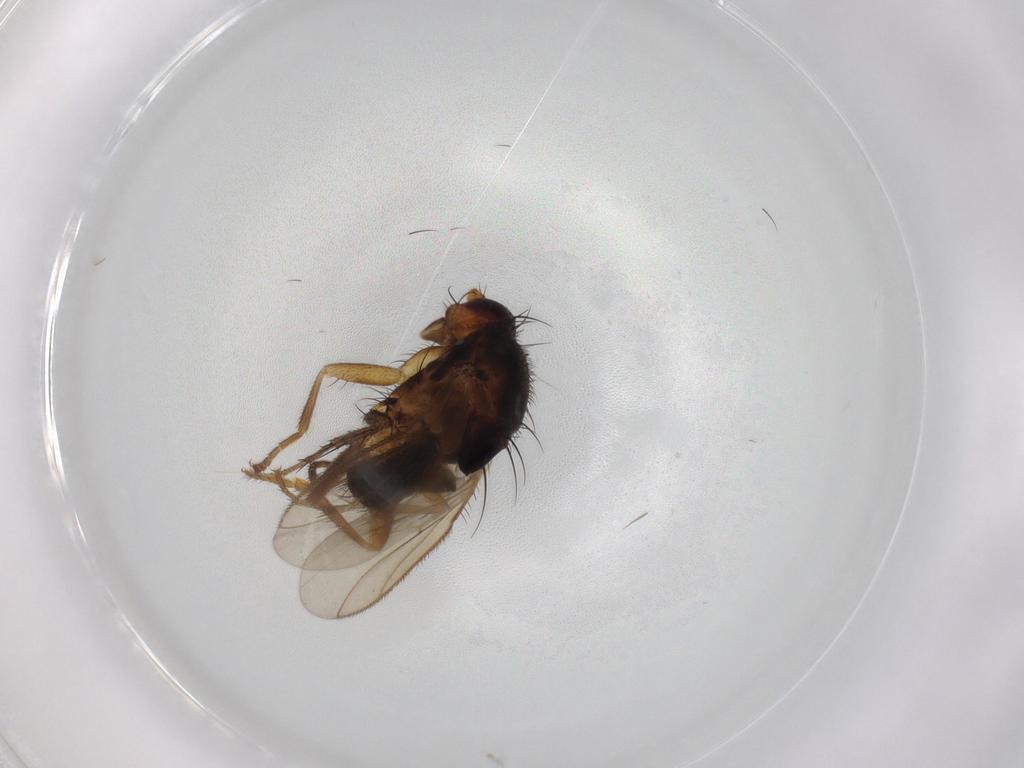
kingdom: Animalia
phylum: Arthropoda
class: Insecta
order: Diptera
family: Sphaeroceridae
